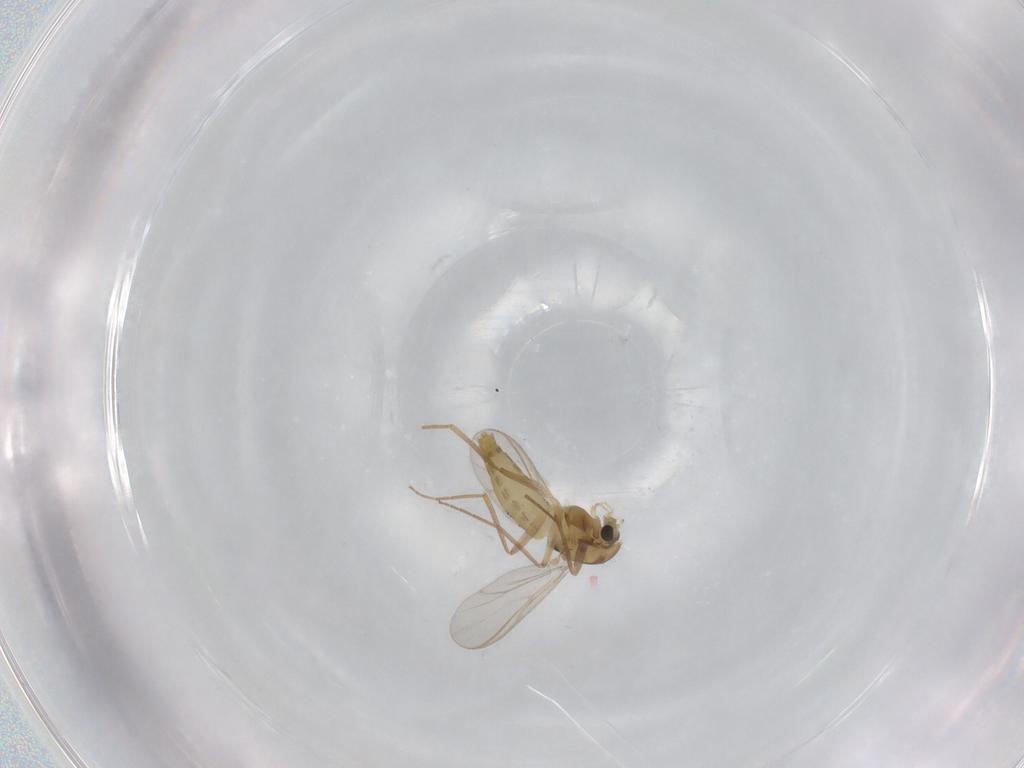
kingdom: Animalia
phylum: Arthropoda
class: Insecta
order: Diptera
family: Chironomidae
